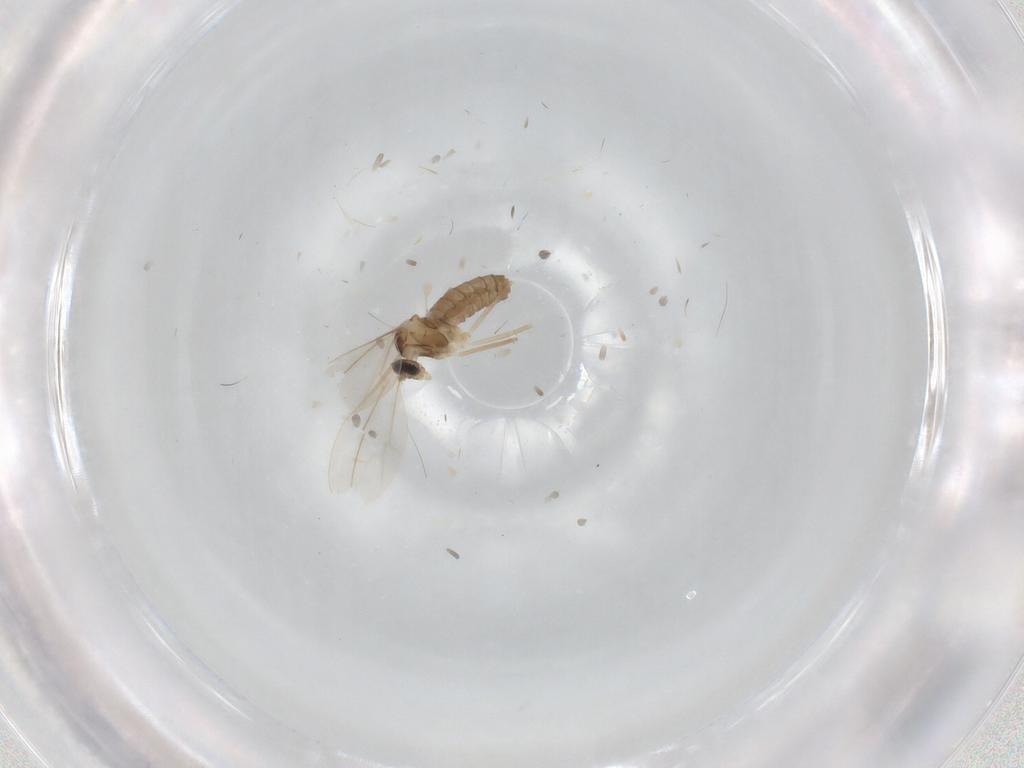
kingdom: Animalia
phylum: Arthropoda
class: Insecta
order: Diptera
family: Cecidomyiidae
